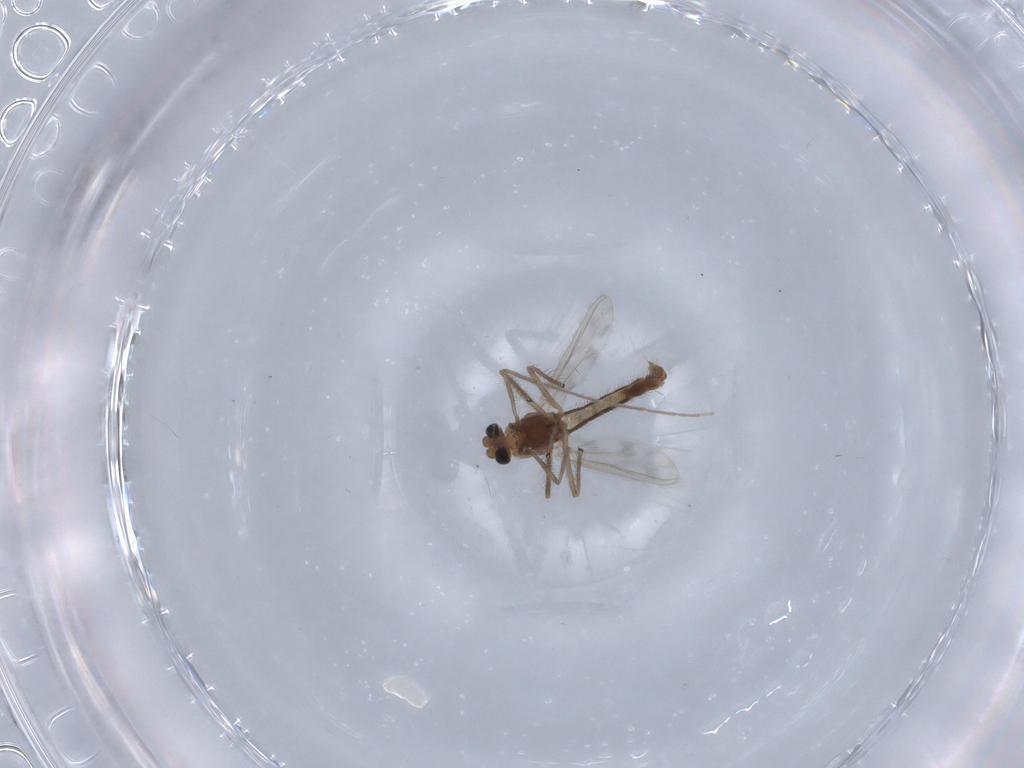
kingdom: Animalia
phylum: Arthropoda
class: Insecta
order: Diptera
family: Chironomidae
